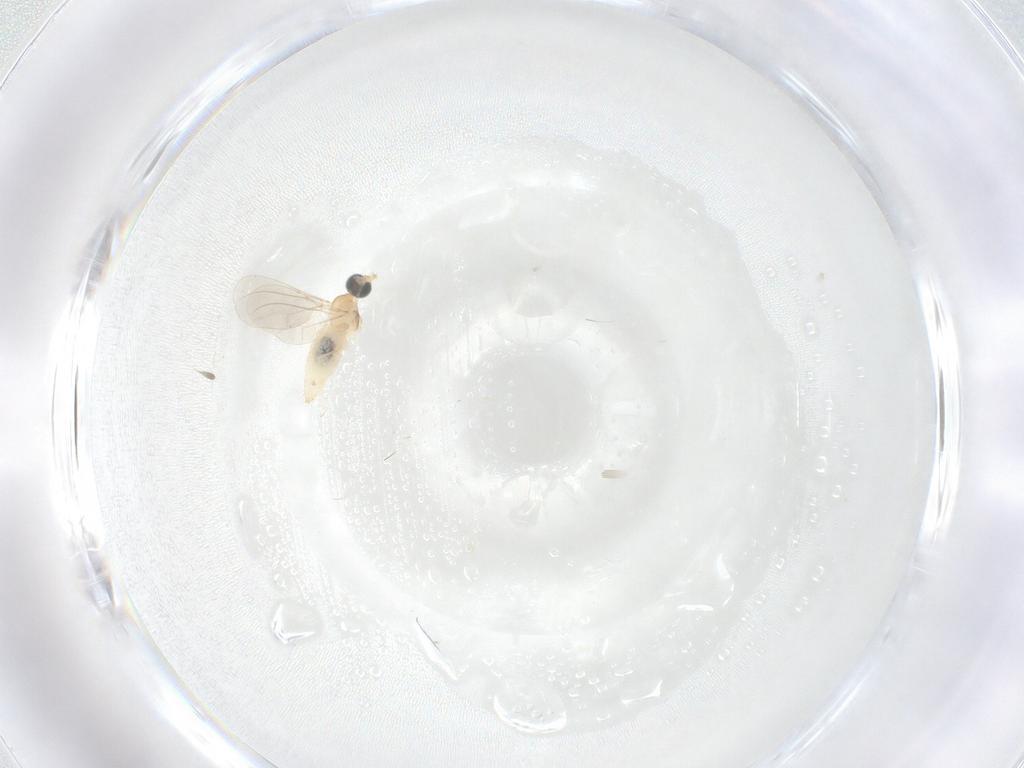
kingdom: Animalia
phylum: Arthropoda
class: Insecta
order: Diptera
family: Cecidomyiidae
